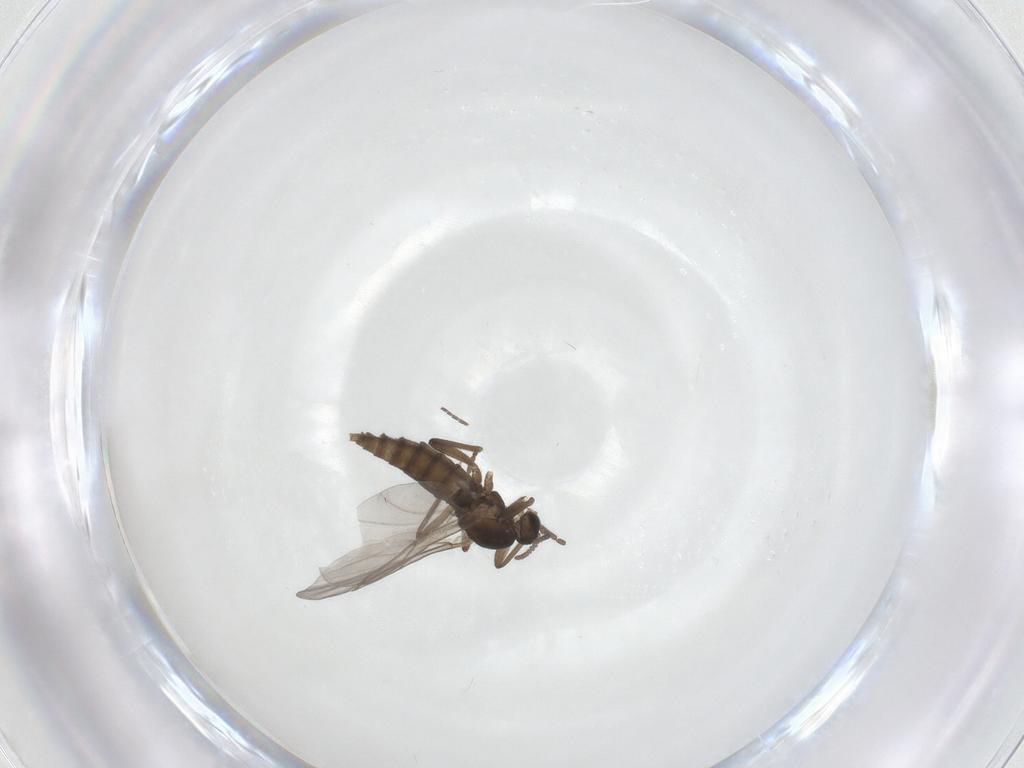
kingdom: Animalia
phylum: Arthropoda
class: Insecta
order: Diptera
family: Cecidomyiidae
